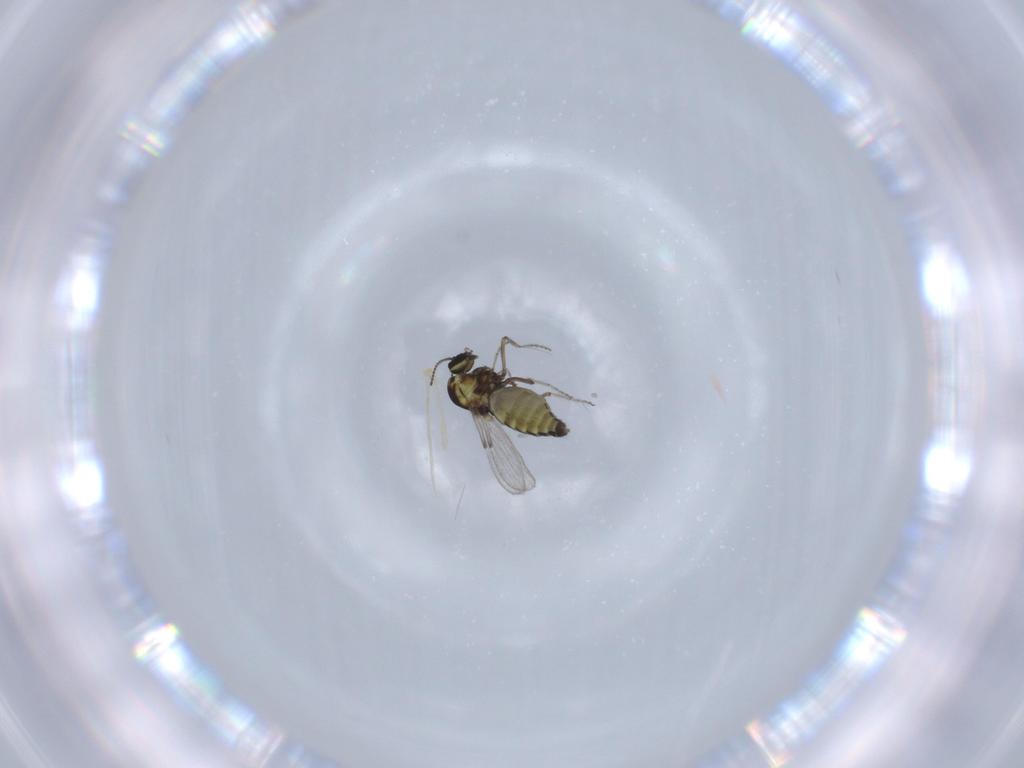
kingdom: Animalia
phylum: Arthropoda
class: Insecta
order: Diptera
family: Ceratopogonidae
